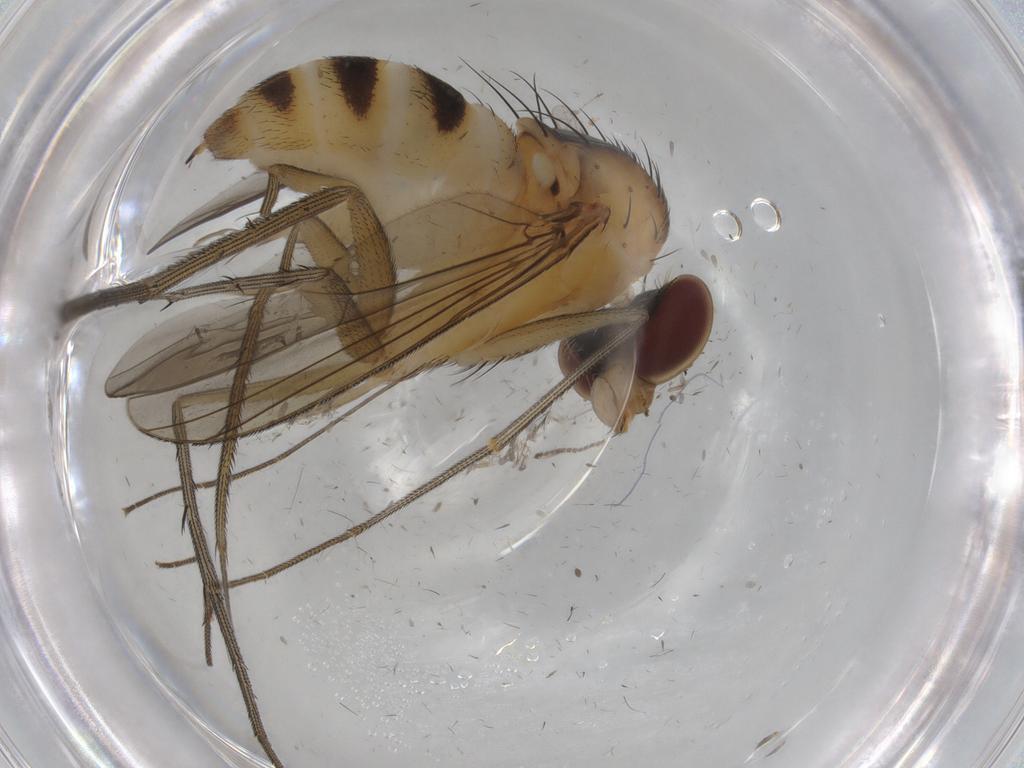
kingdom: Animalia
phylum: Arthropoda
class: Insecta
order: Diptera
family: Dolichopodidae
